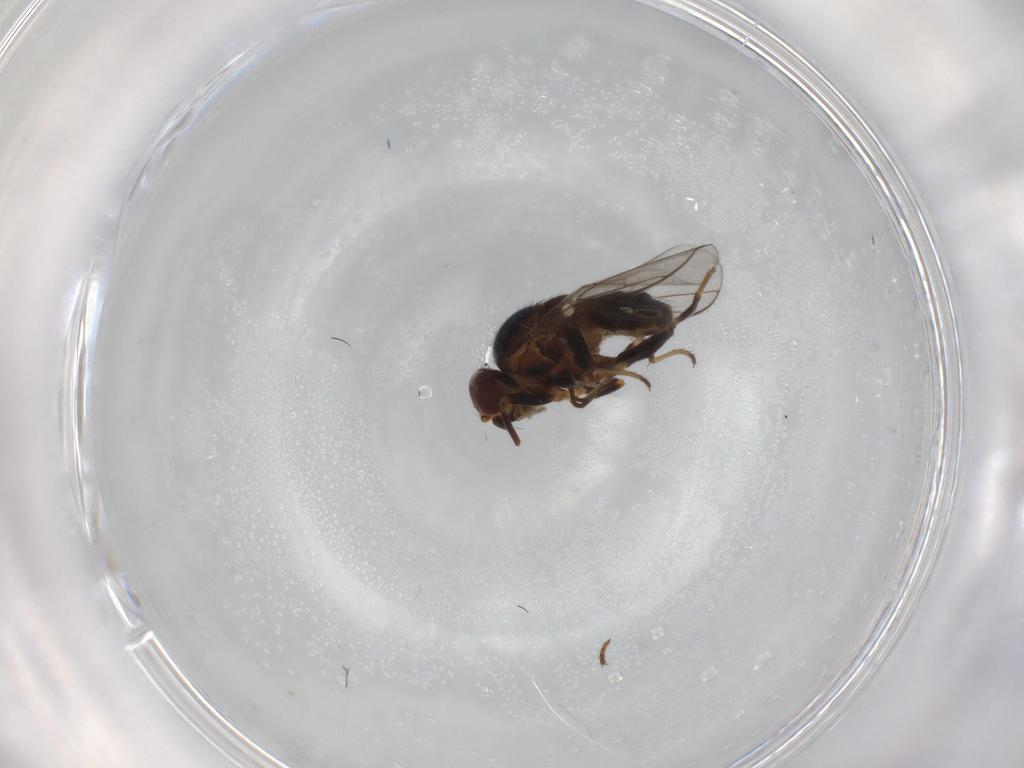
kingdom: Animalia
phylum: Arthropoda
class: Insecta
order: Diptera
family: Chloropidae
